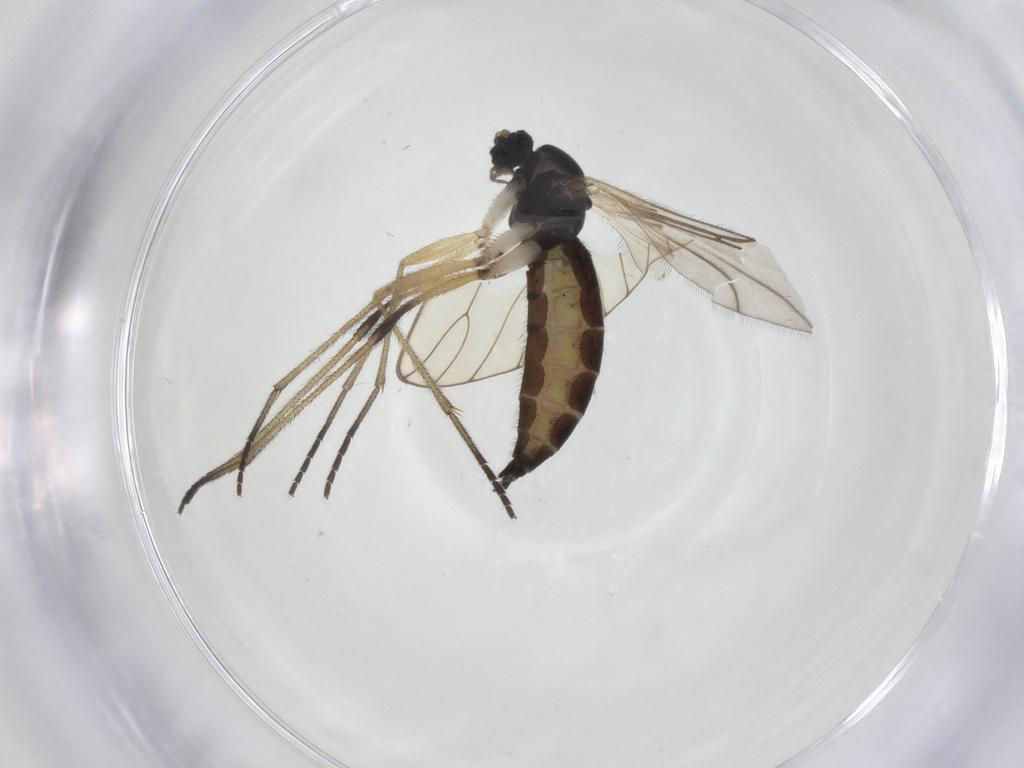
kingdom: Animalia
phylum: Arthropoda
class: Insecta
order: Diptera
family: Sciaridae
